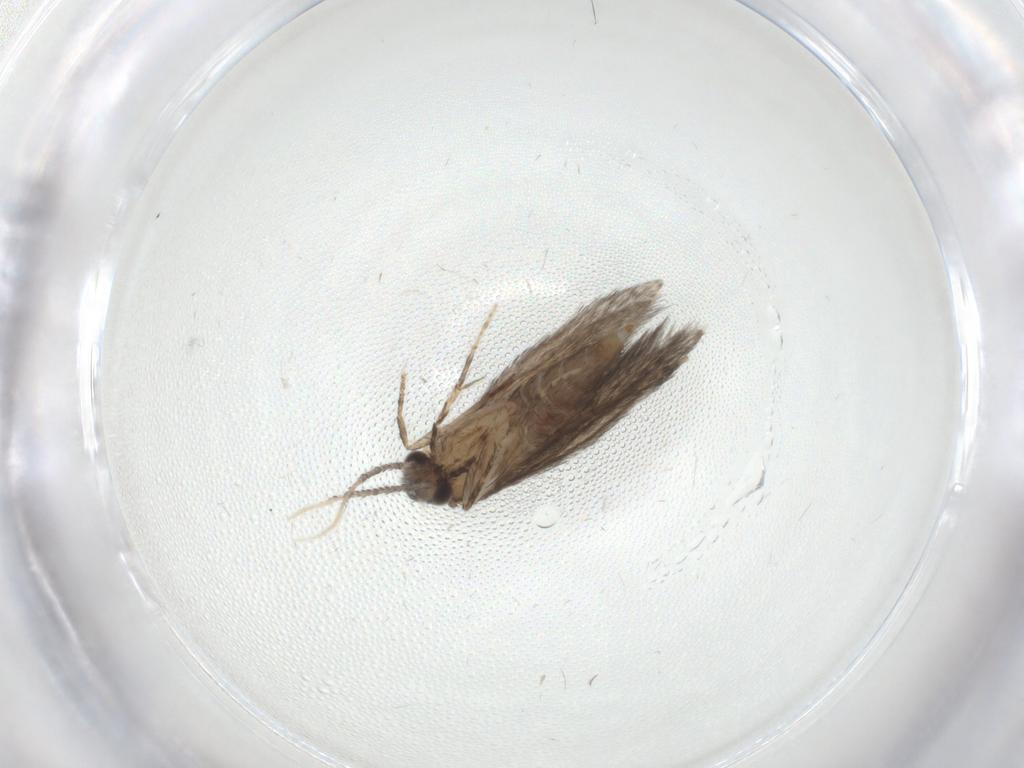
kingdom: Animalia
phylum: Arthropoda
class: Insecta
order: Trichoptera
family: Hydroptilidae
